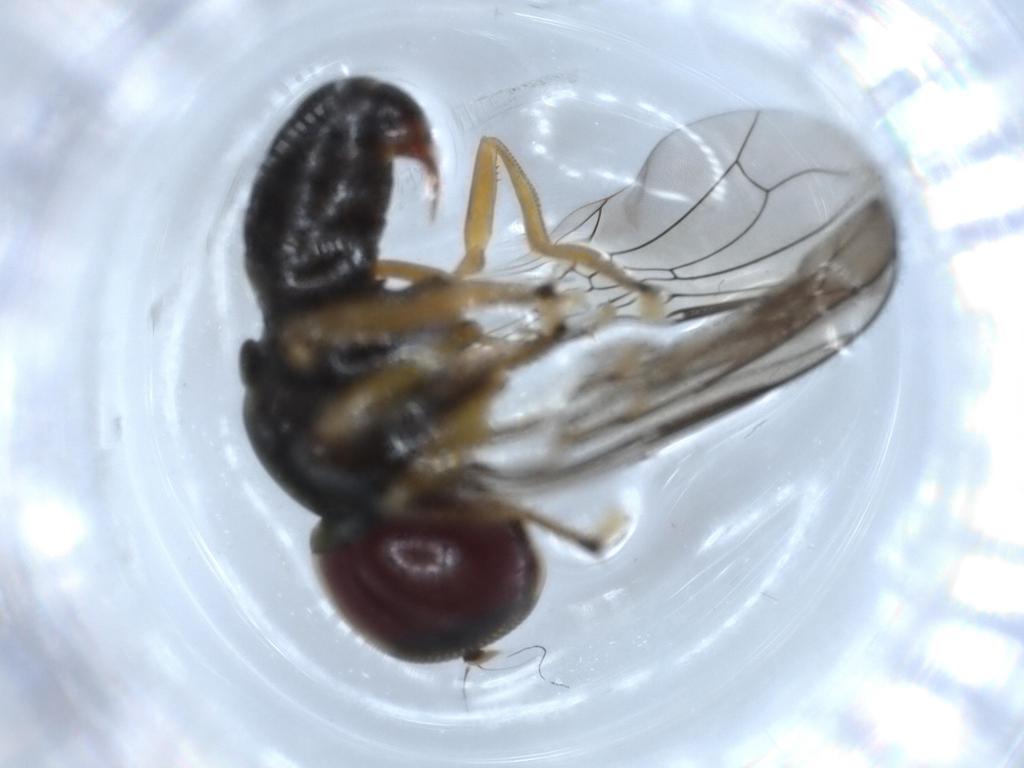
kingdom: Animalia
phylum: Arthropoda
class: Insecta
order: Diptera
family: Pipunculidae
